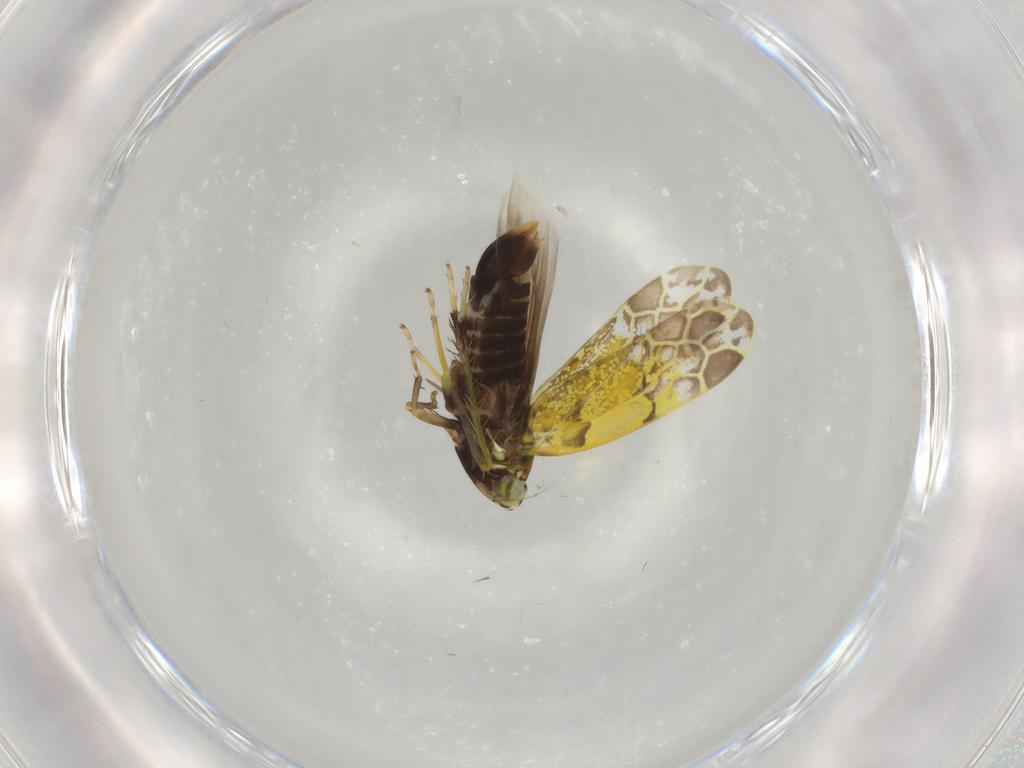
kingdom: Animalia
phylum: Arthropoda
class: Insecta
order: Hemiptera
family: Cicadellidae
